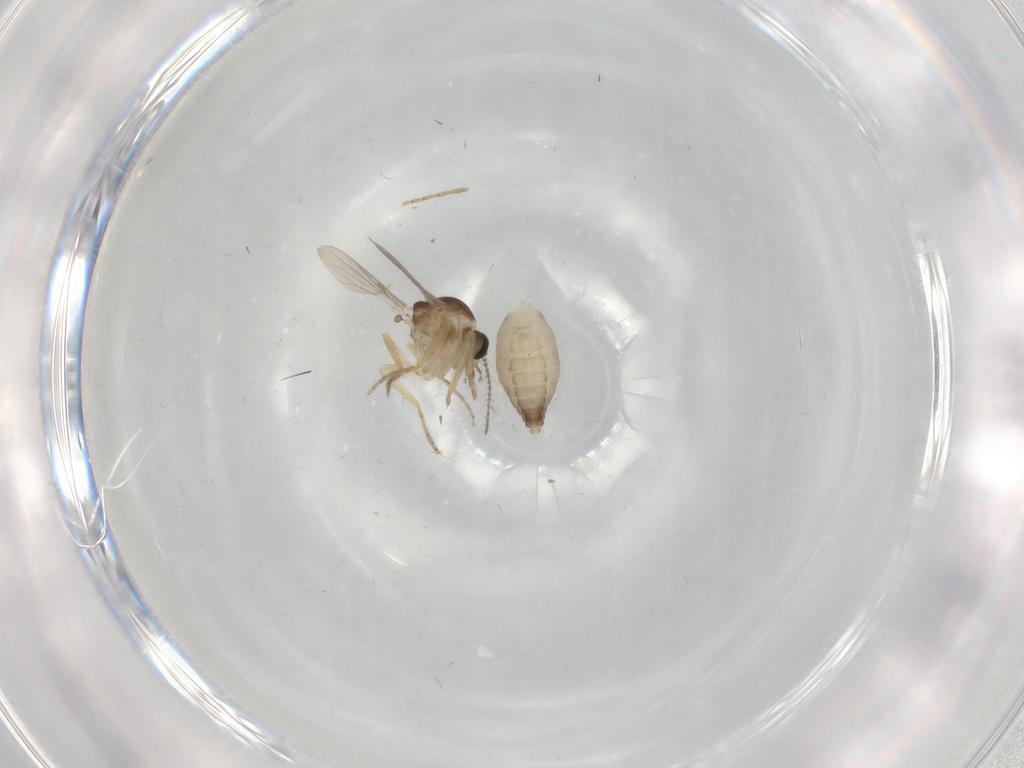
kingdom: Animalia
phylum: Arthropoda
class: Insecta
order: Diptera
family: Ceratopogonidae
